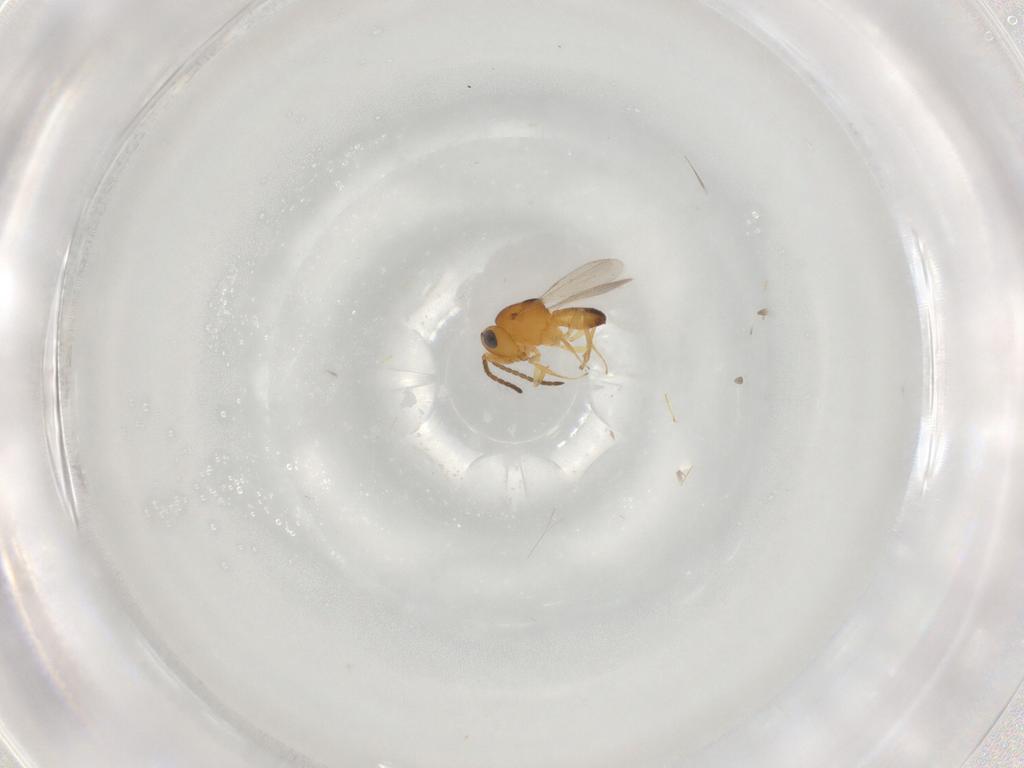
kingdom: Animalia
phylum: Arthropoda
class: Insecta
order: Hymenoptera
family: Scelionidae
